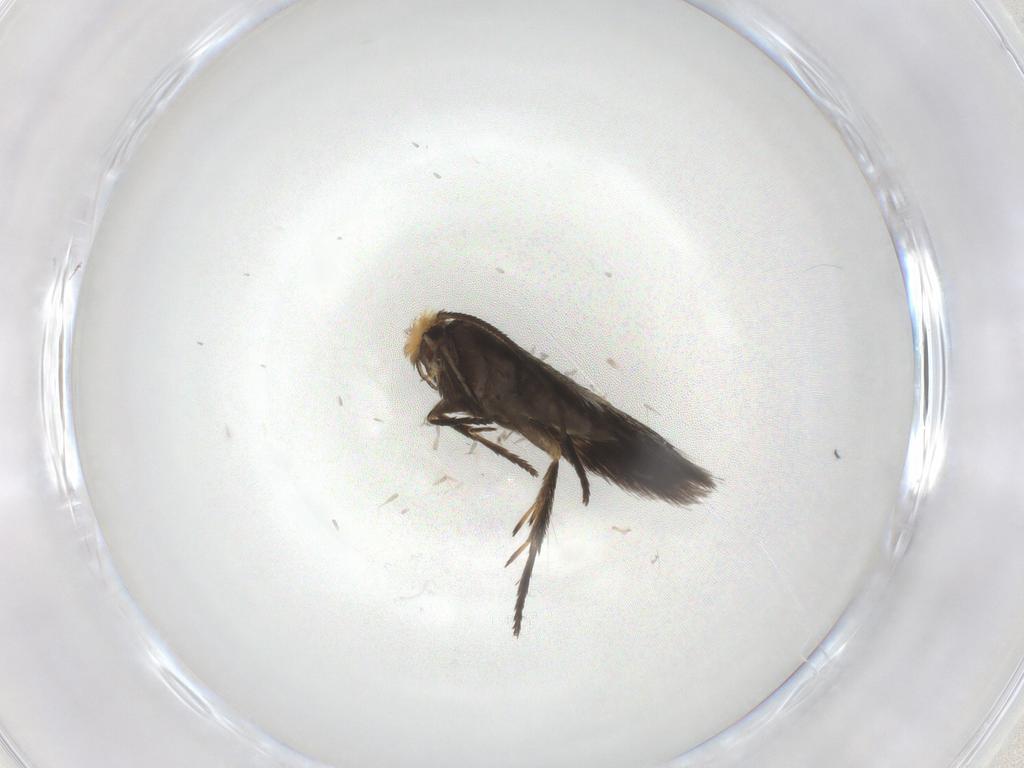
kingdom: Animalia
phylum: Arthropoda
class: Insecta
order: Lepidoptera
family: Nepticulidae
